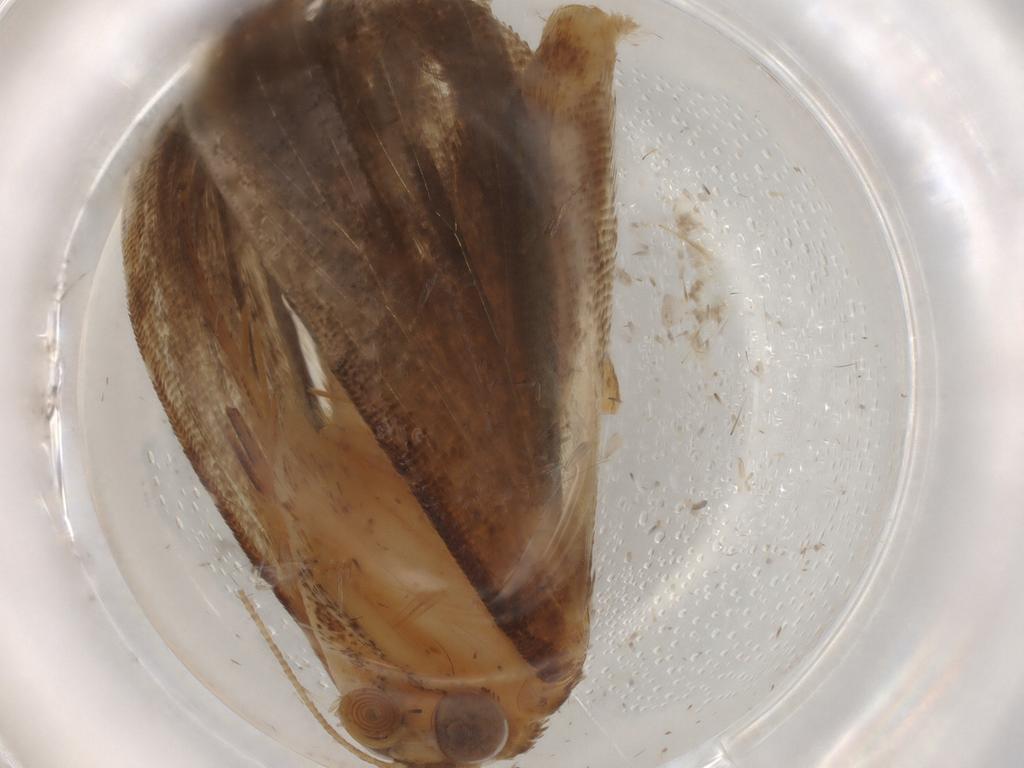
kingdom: Animalia
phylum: Arthropoda
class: Insecta
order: Lepidoptera
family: Erebidae
